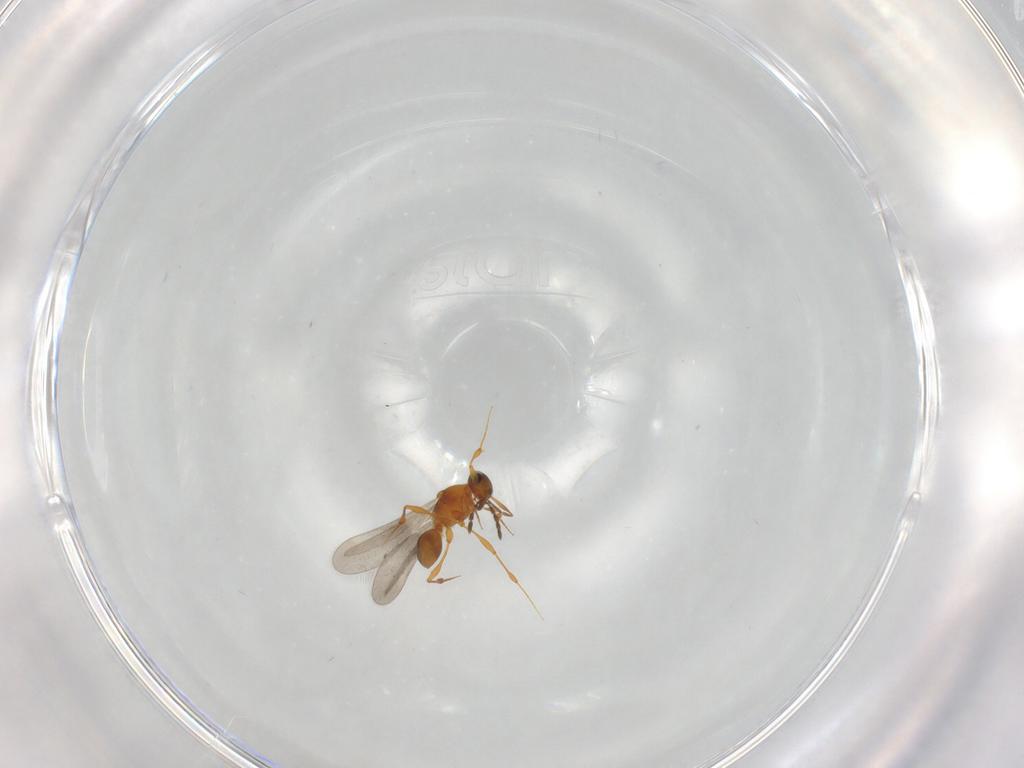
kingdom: Animalia
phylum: Arthropoda
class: Insecta
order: Hymenoptera
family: Platygastridae
